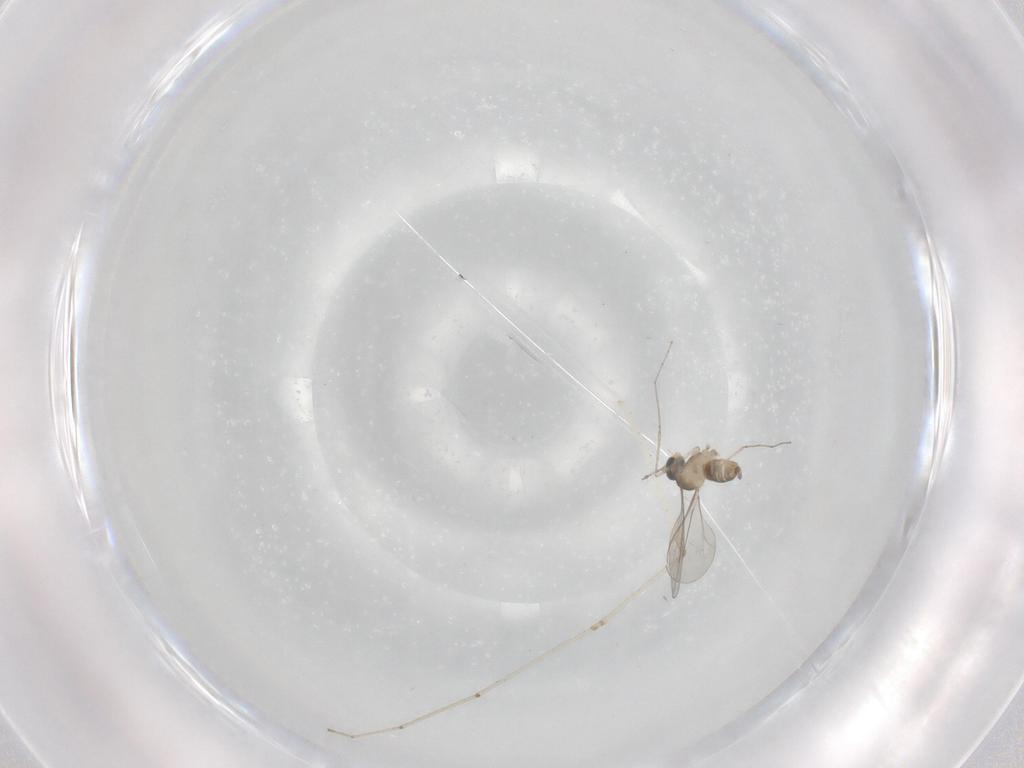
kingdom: Animalia
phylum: Arthropoda
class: Insecta
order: Diptera
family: Cecidomyiidae
